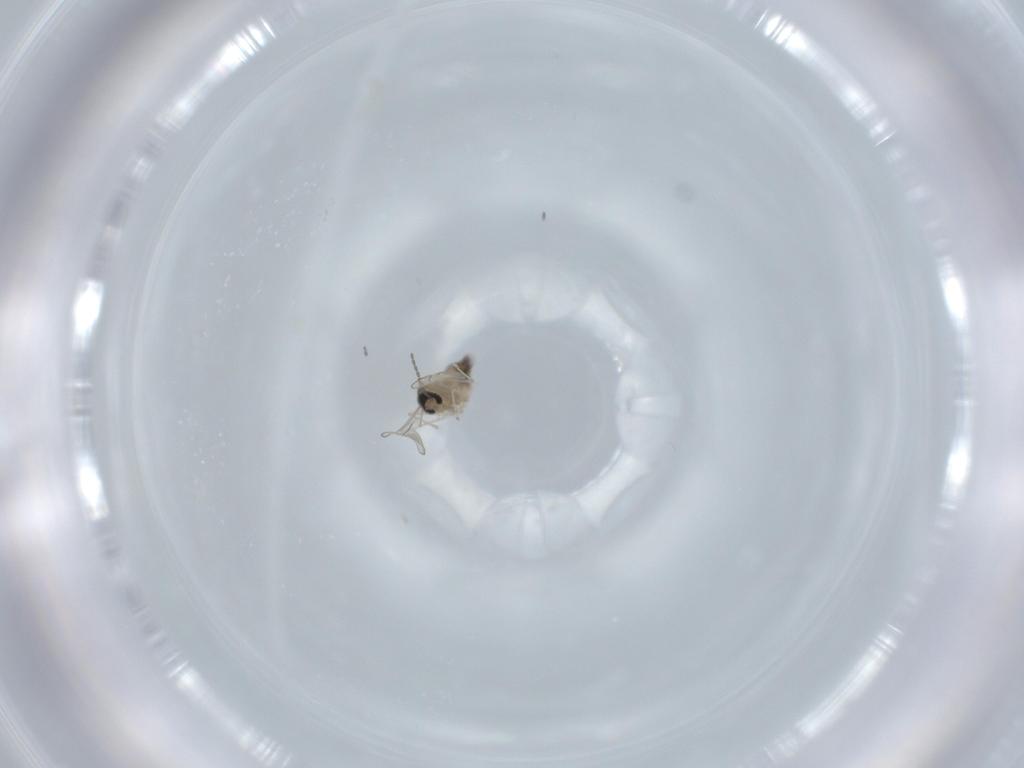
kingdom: Animalia
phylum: Arthropoda
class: Insecta
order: Diptera
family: Cecidomyiidae
